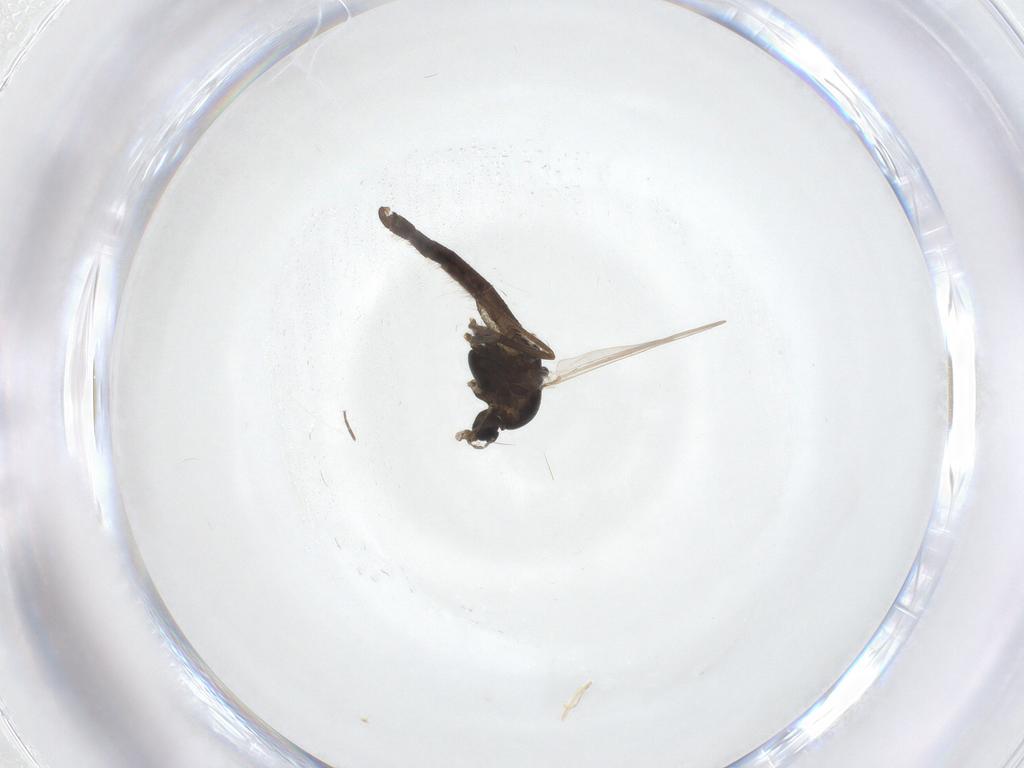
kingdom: Animalia
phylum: Arthropoda
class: Insecta
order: Diptera
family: Chironomidae
